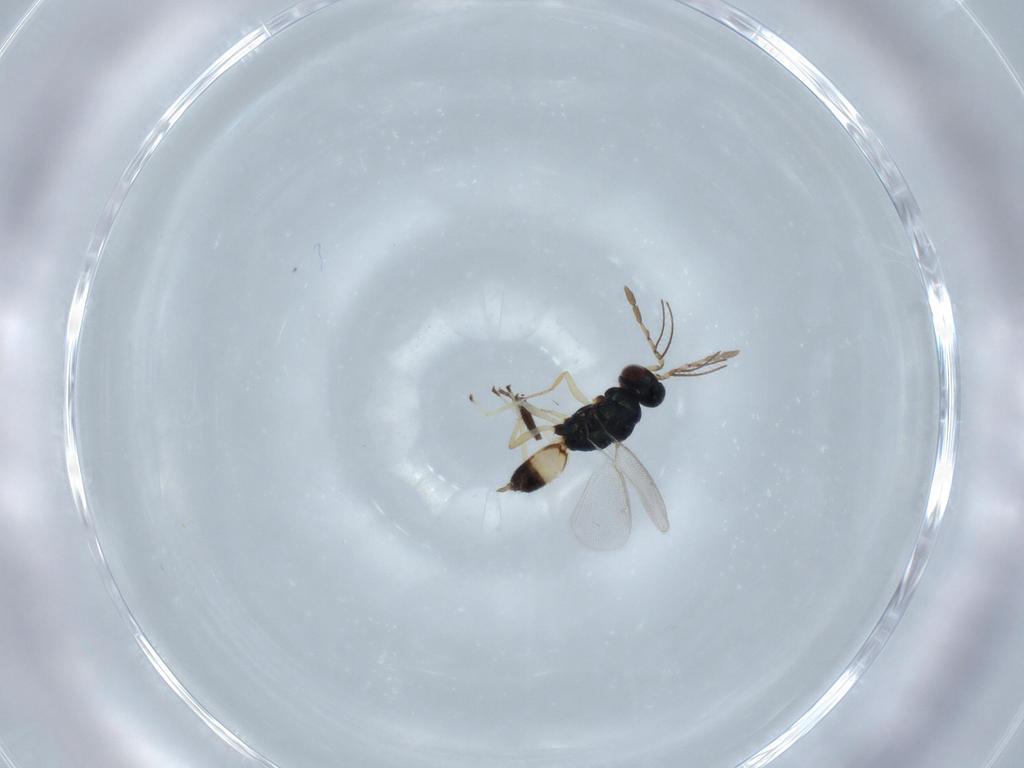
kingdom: Animalia
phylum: Arthropoda
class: Insecta
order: Hymenoptera
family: Eulophidae
